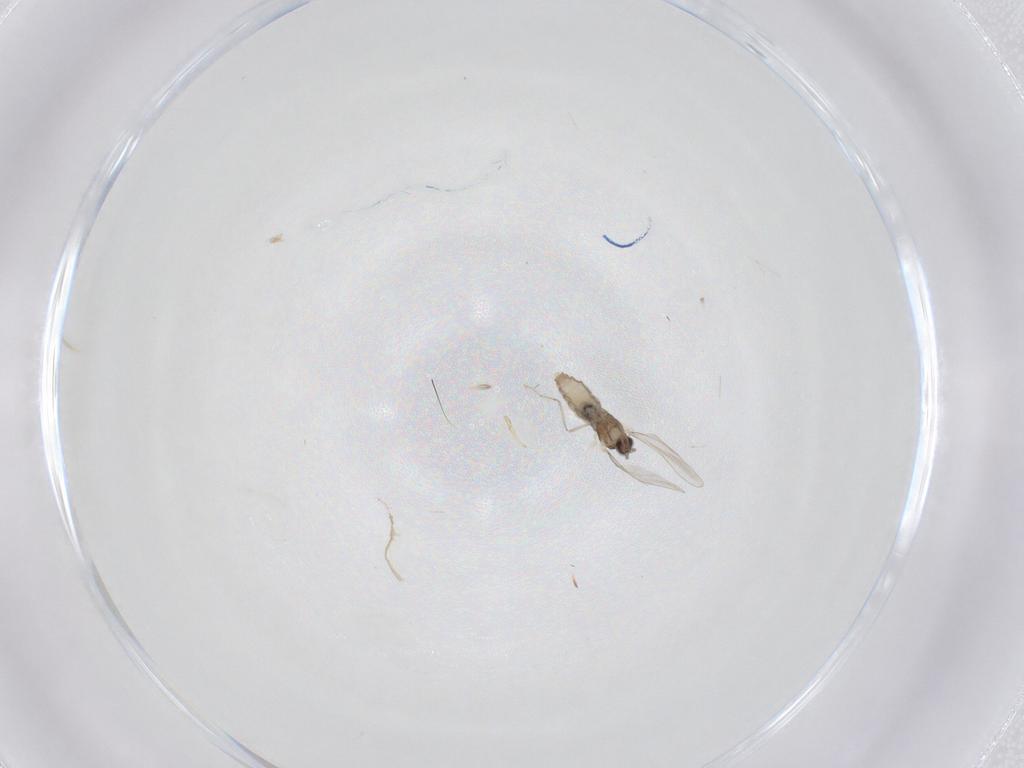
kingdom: Animalia
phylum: Arthropoda
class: Insecta
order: Diptera
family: Cecidomyiidae
